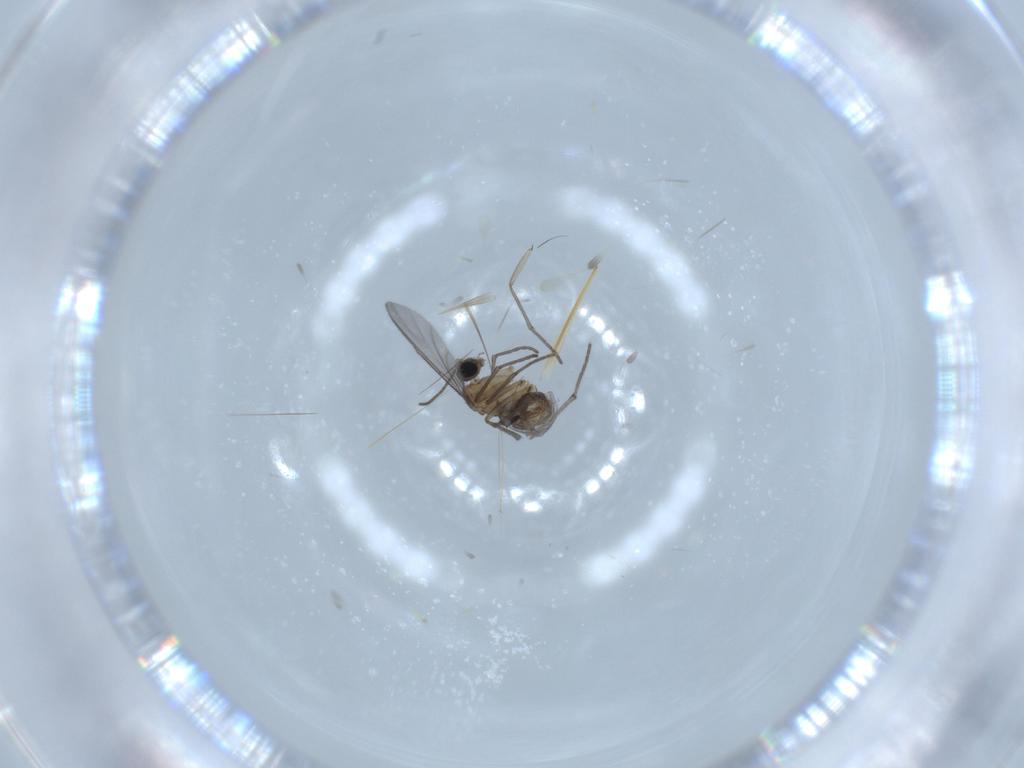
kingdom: Animalia
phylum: Arthropoda
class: Insecta
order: Diptera
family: Sciaridae
